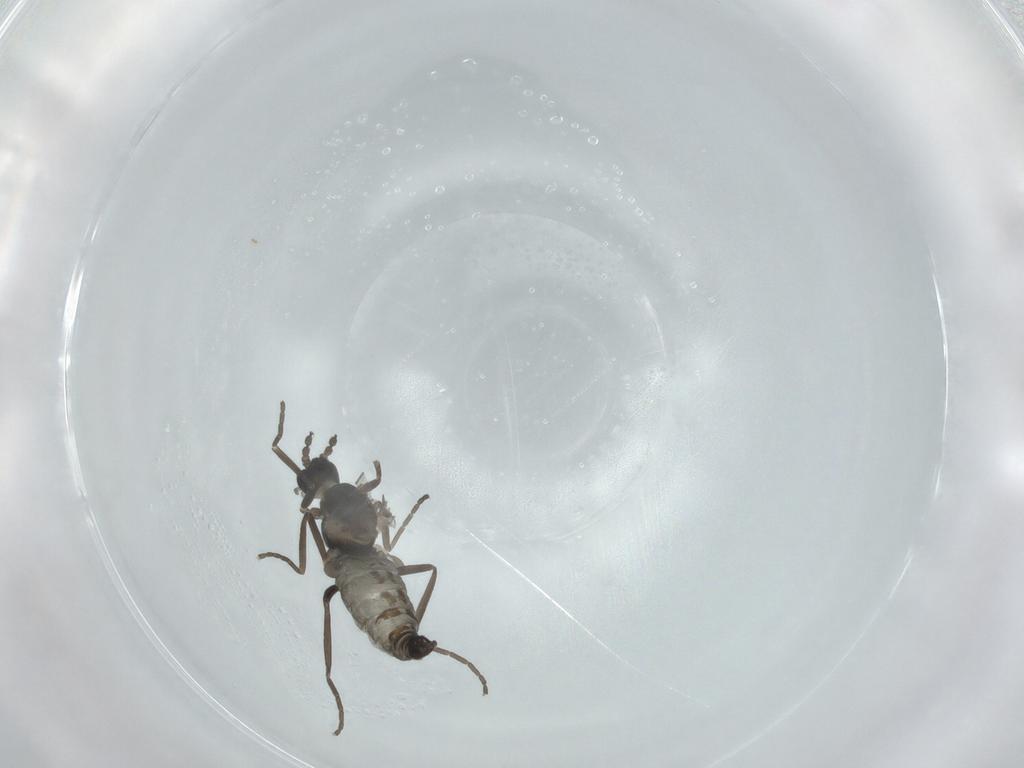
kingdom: Animalia
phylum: Arthropoda
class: Insecta
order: Diptera
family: Cecidomyiidae
